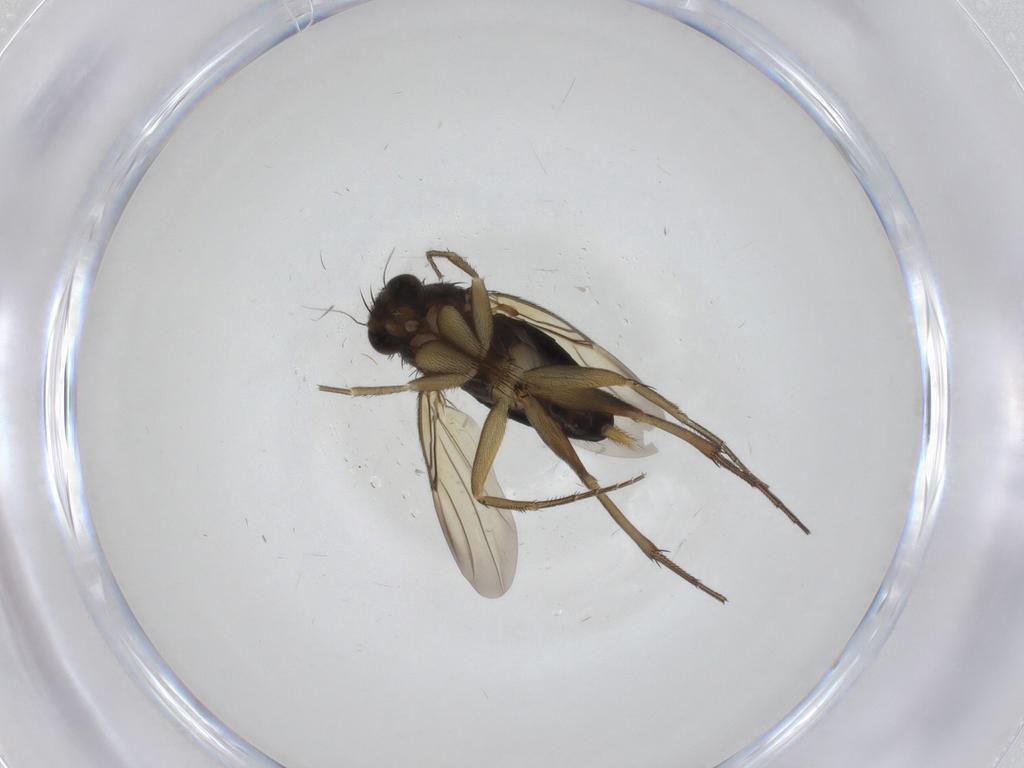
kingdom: Animalia
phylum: Arthropoda
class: Insecta
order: Diptera
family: Phoridae
